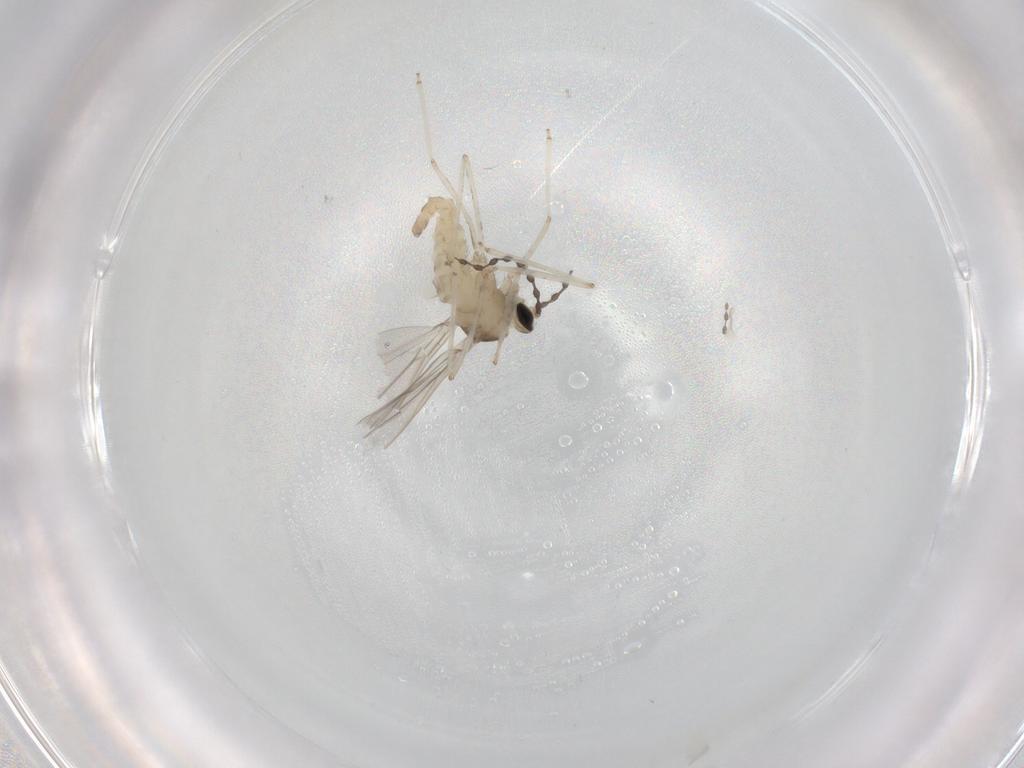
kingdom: Animalia
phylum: Arthropoda
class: Insecta
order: Diptera
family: Cecidomyiidae
